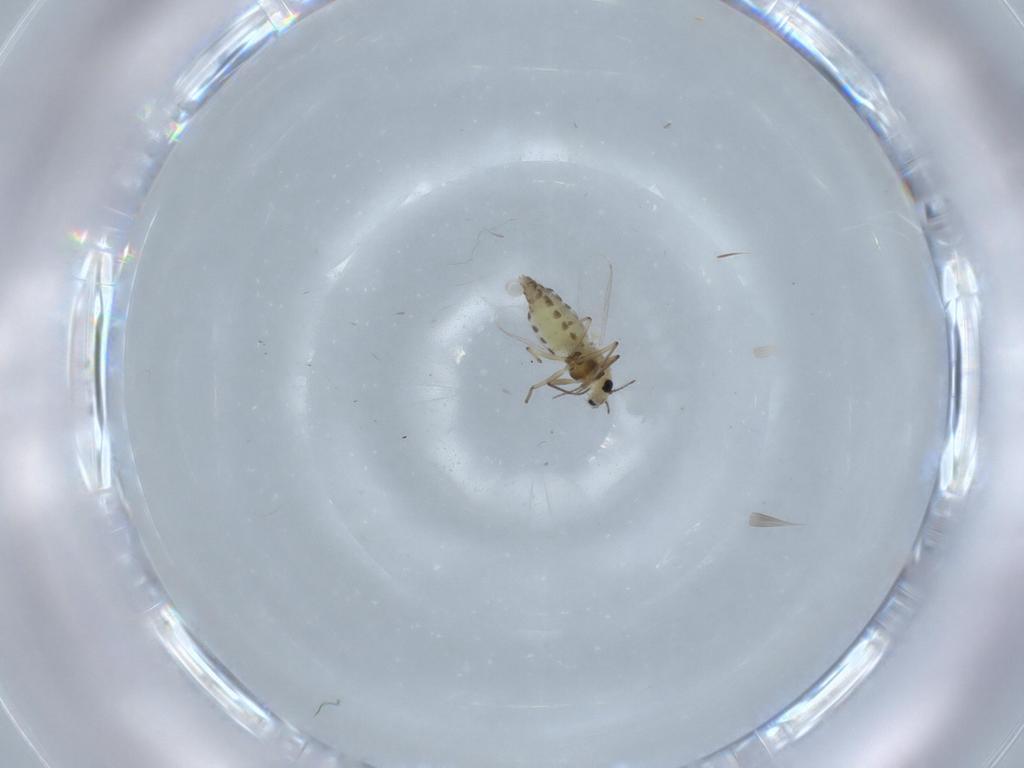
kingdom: Animalia
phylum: Arthropoda
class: Insecta
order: Diptera
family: Chironomidae
